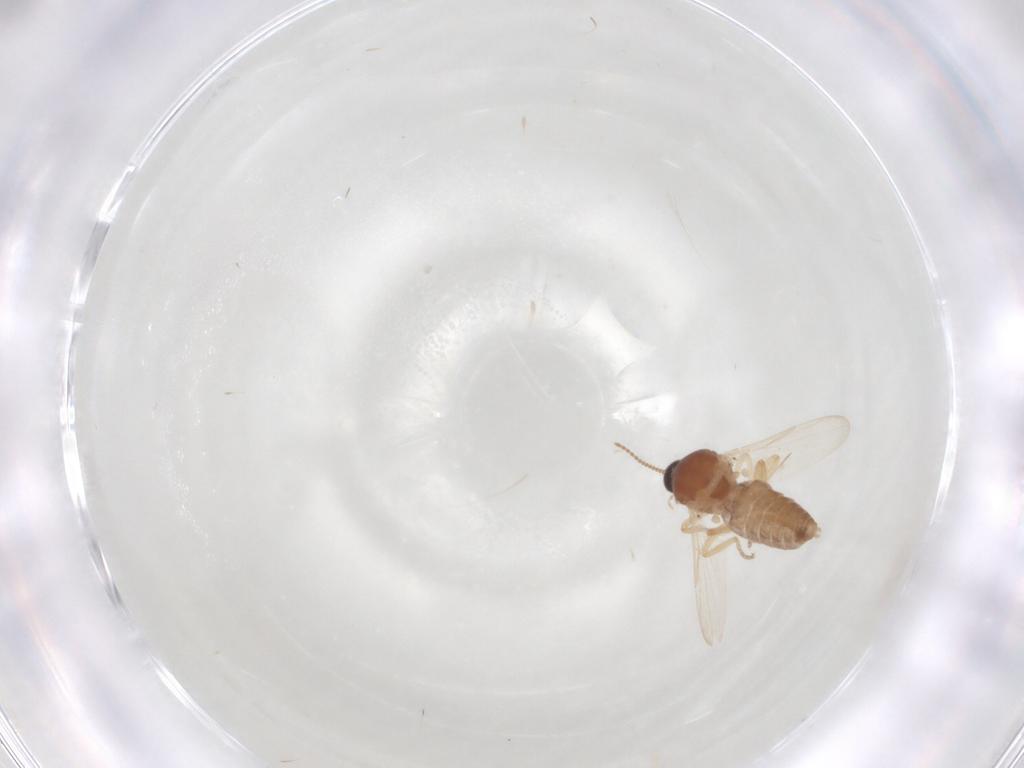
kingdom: Animalia
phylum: Arthropoda
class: Insecta
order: Diptera
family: Ceratopogonidae
